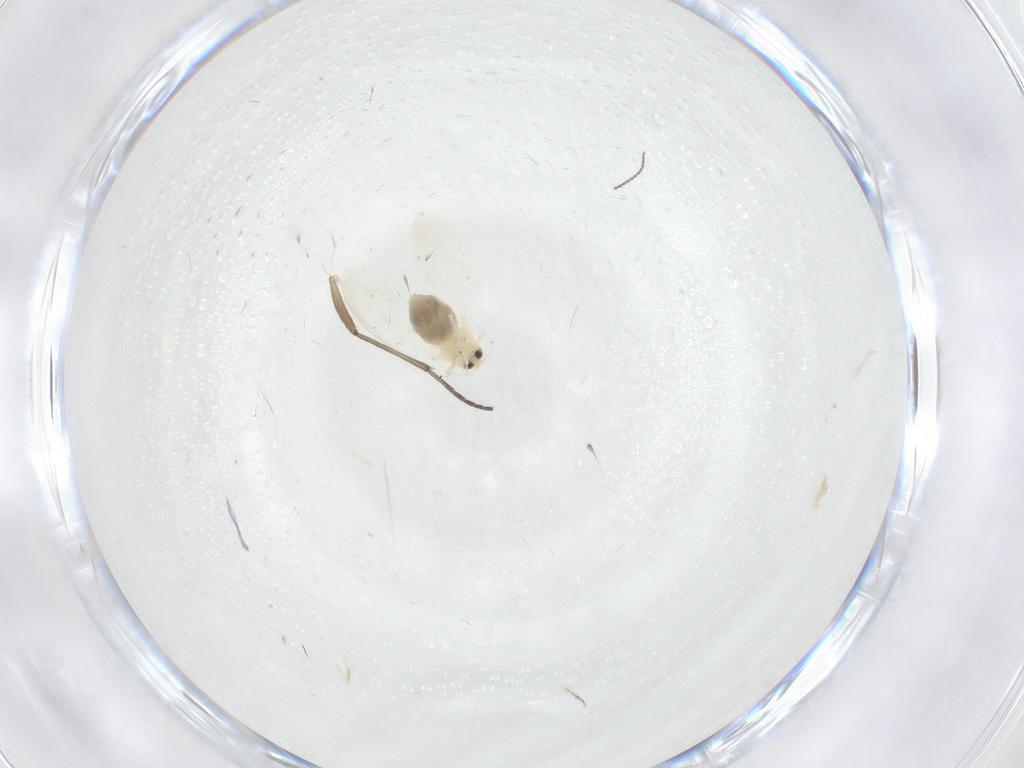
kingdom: Animalia
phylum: Arthropoda
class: Insecta
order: Hemiptera
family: Aleyrodidae
